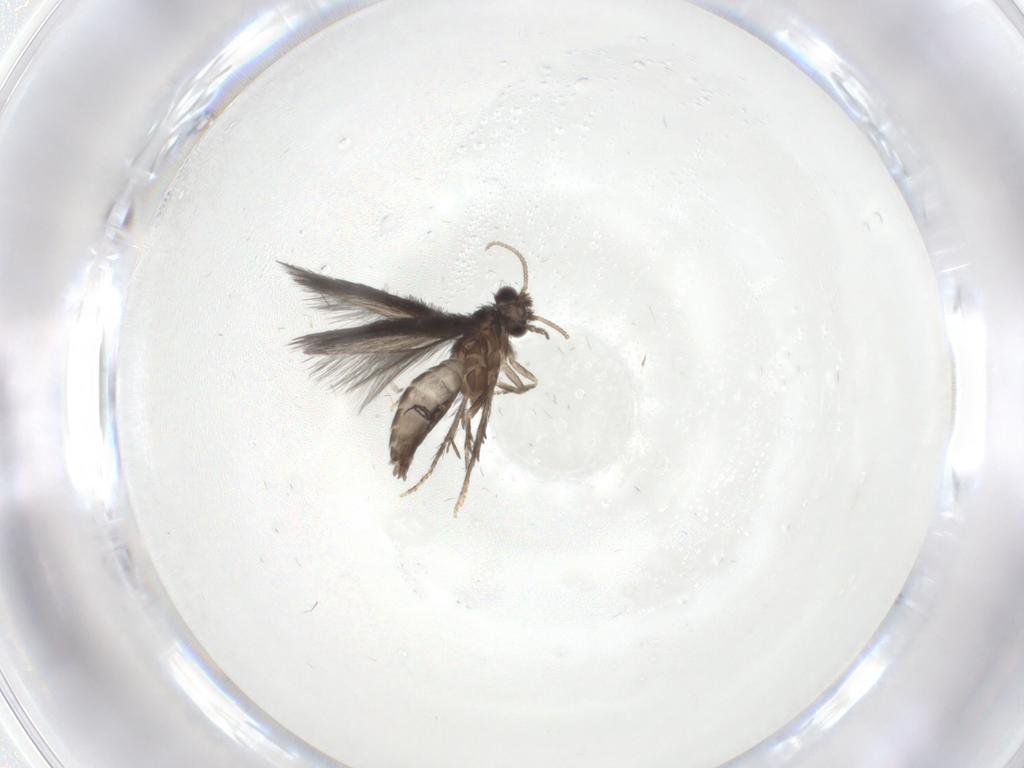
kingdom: Animalia
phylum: Arthropoda
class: Insecta
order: Trichoptera
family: Hydroptilidae
